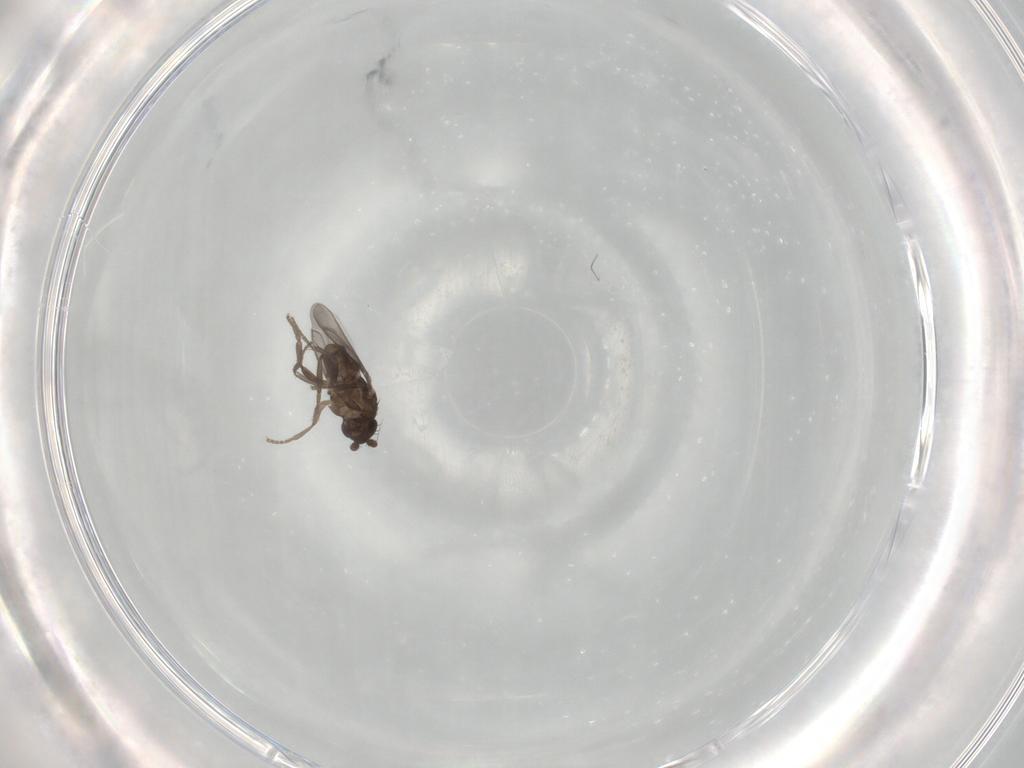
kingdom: Animalia
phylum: Arthropoda
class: Insecta
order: Diptera
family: Sphaeroceridae
